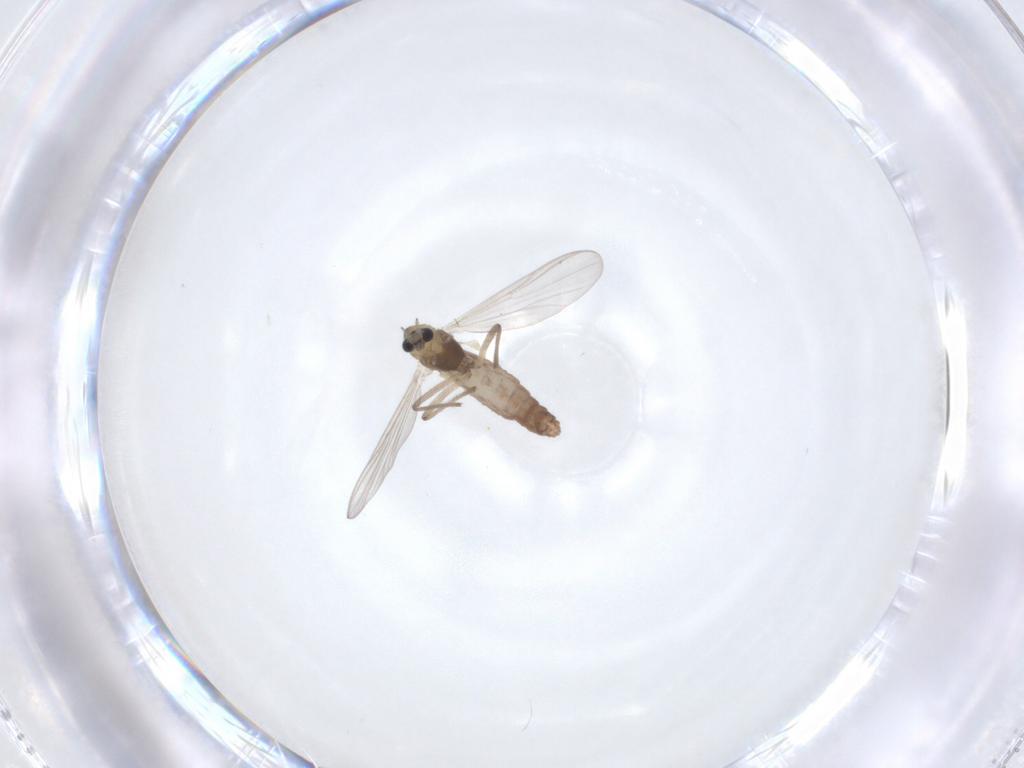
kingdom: Animalia
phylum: Arthropoda
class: Insecta
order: Diptera
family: Chironomidae
